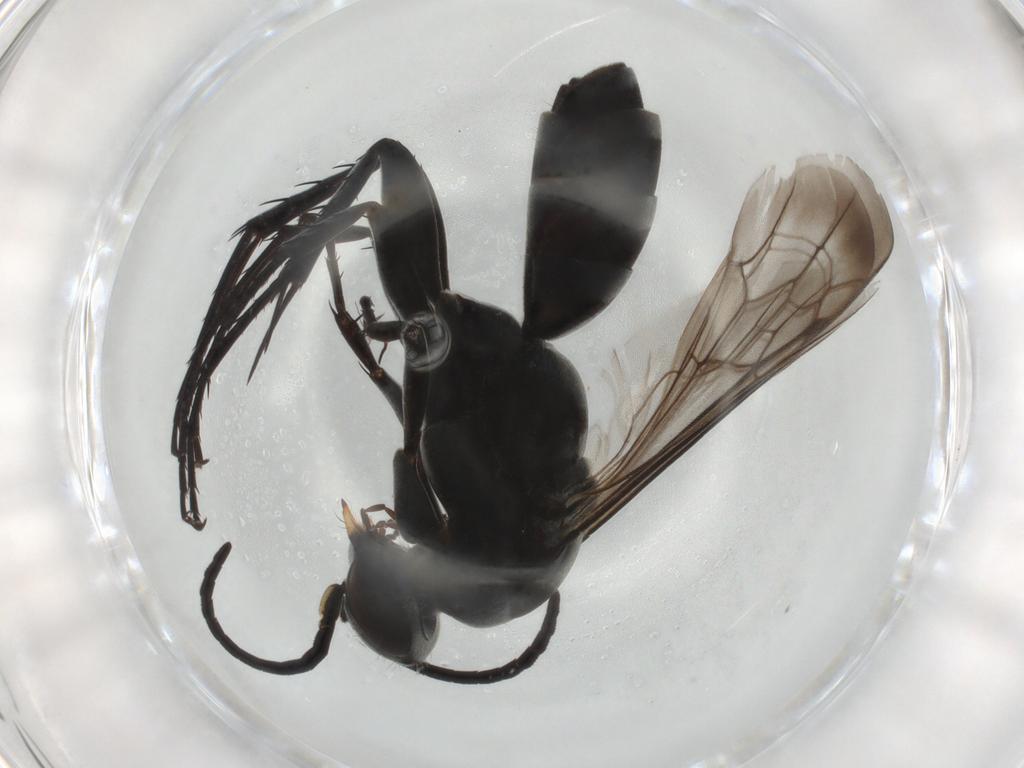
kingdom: Animalia
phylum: Arthropoda
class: Insecta
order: Hymenoptera
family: Pompilidae
